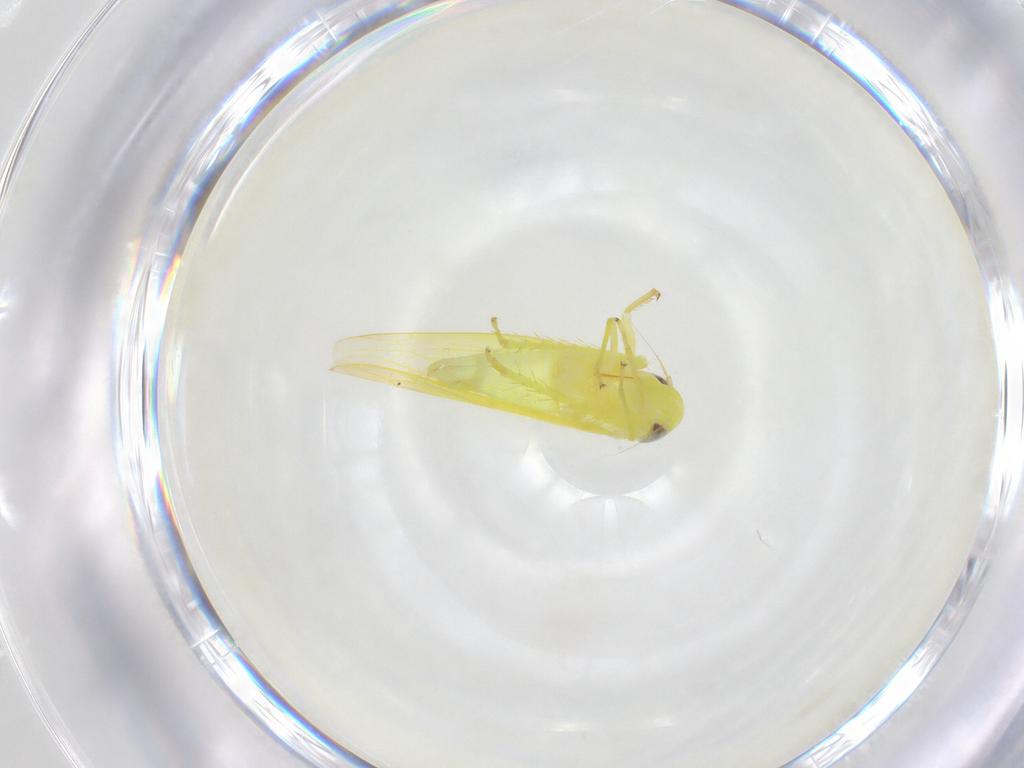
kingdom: Animalia
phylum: Arthropoda
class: Insecta
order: Hemiptera
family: Cicadellidae
